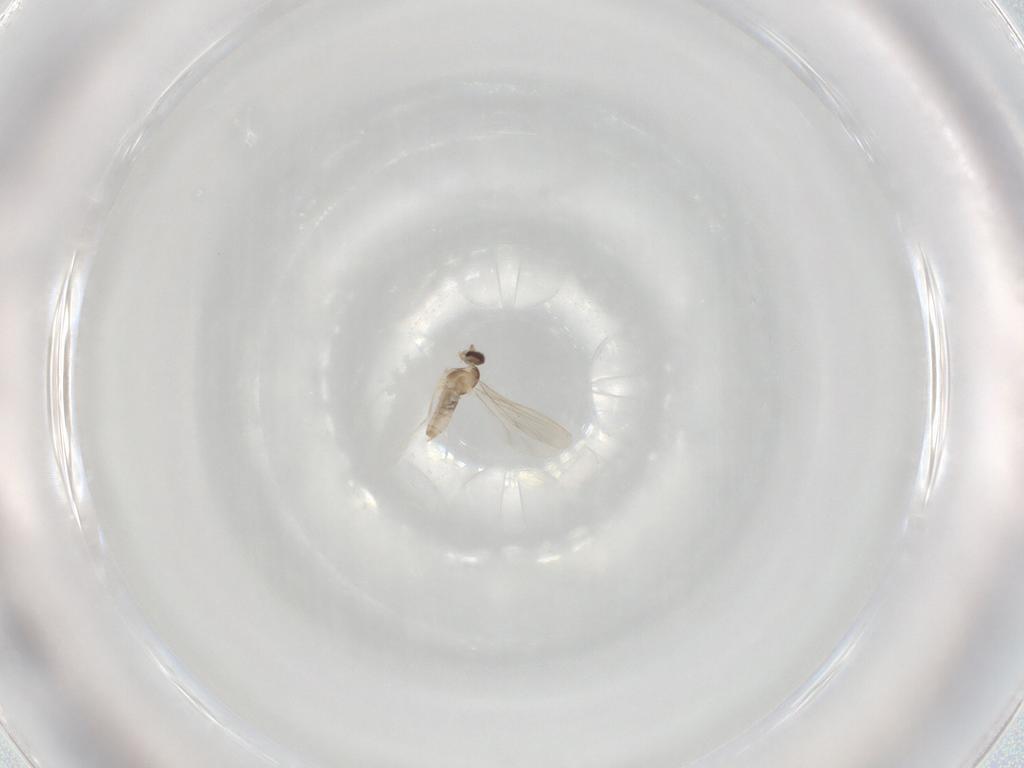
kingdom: Animalia
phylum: Arthropoda
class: Insecta
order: Diptera
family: Cecidomyiidae
